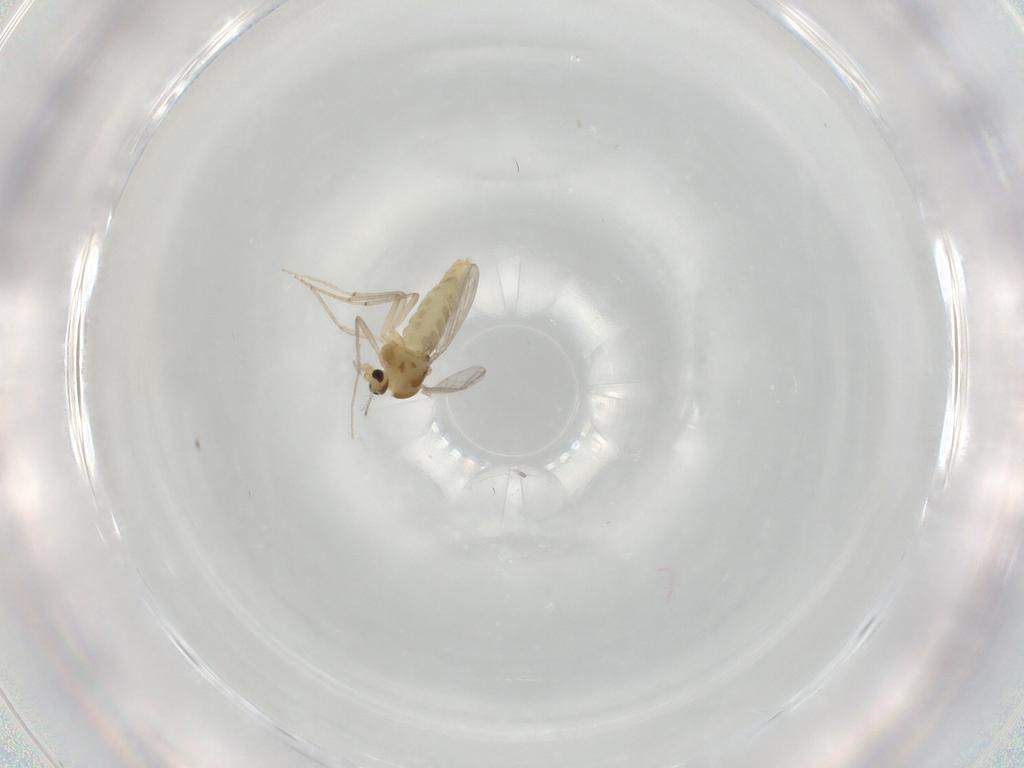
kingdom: Animalia
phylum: Arthropoda
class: Insecta
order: Diptera
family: Chironomidae
